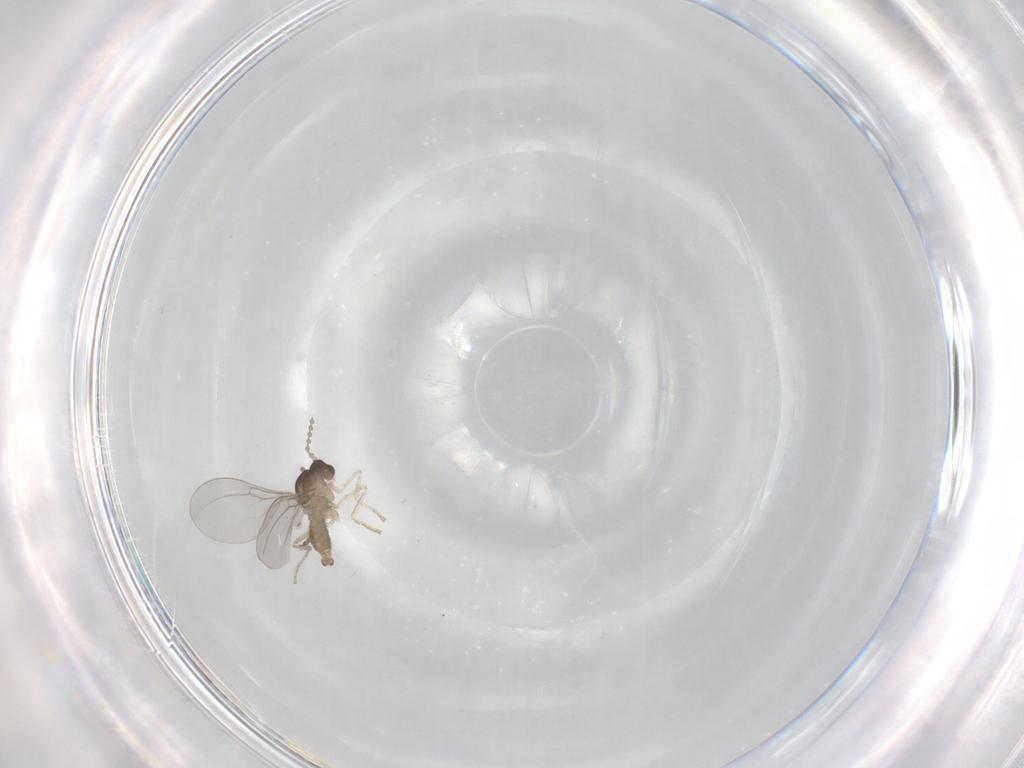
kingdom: Animalia
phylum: Arthropoda
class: Insecta
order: Diptera
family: Cecidomyiidae
